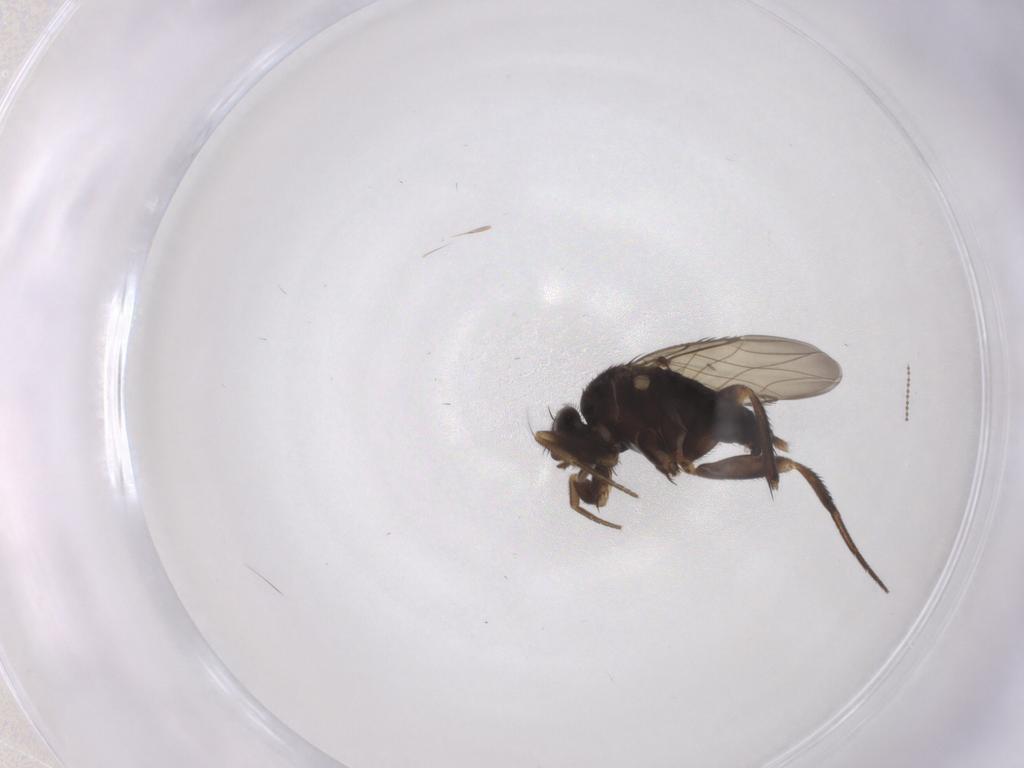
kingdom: Animalia
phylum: Arthropoda
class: Insecta
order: Diptera
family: Phoridae
